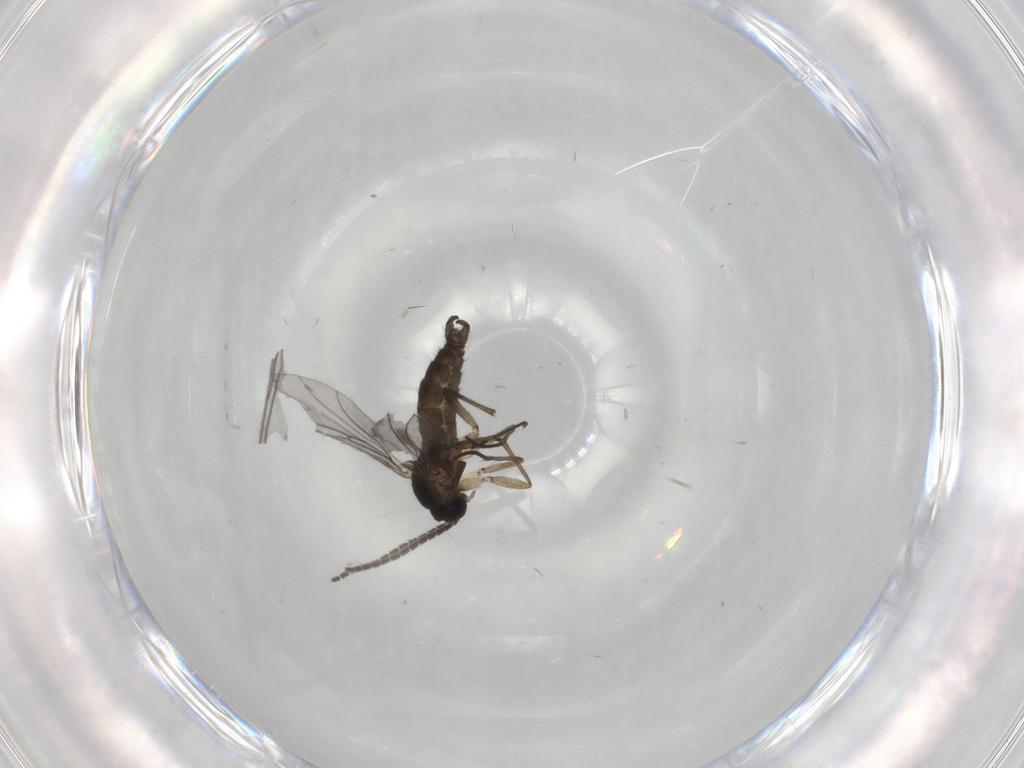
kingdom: Animalia
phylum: Arthropoda
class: Insecta
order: Diptera
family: Sciaridae
